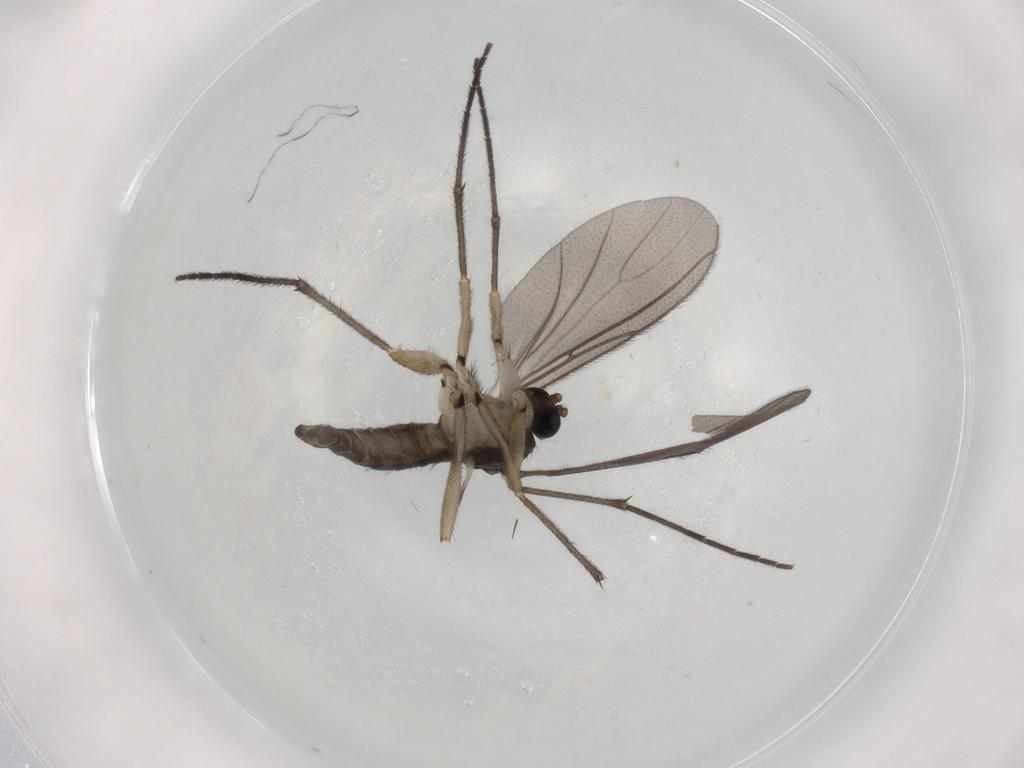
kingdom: Animalia
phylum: Arthropoda
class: Insecta
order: Diptera
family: Sciaridae
